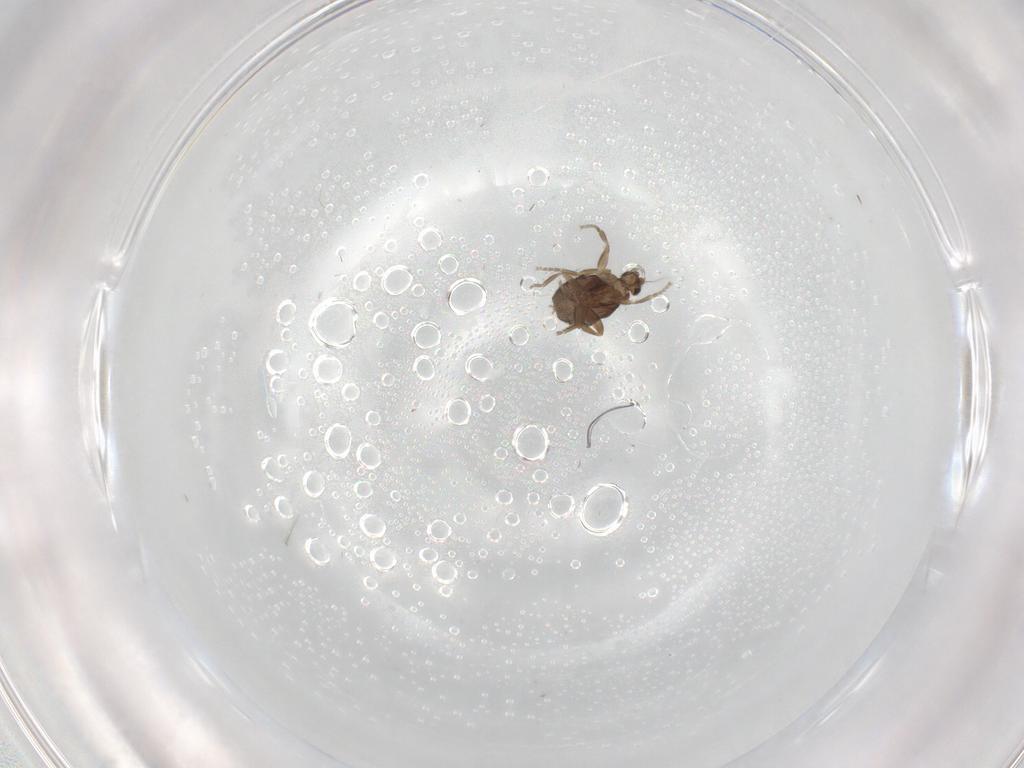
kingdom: Animalia
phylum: Arthropoda
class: Insecta
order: Diptera
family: Phoridae
